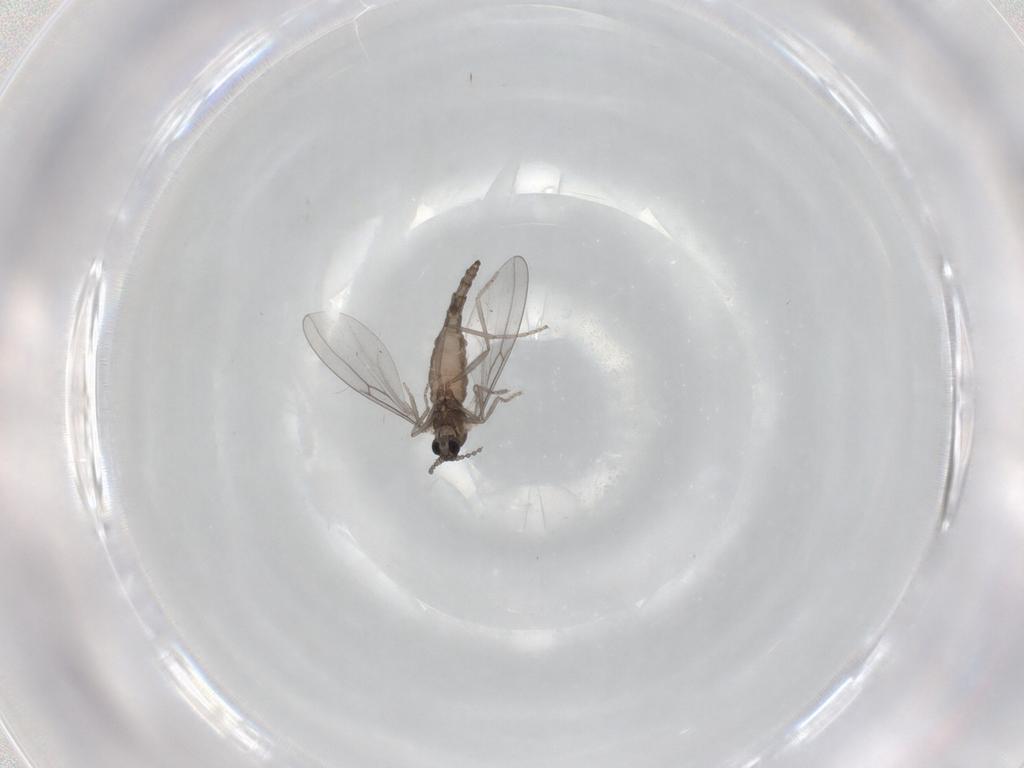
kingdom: Animalia
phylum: Arthropoda
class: Insecta
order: Diptera
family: Cecidomyiidae
